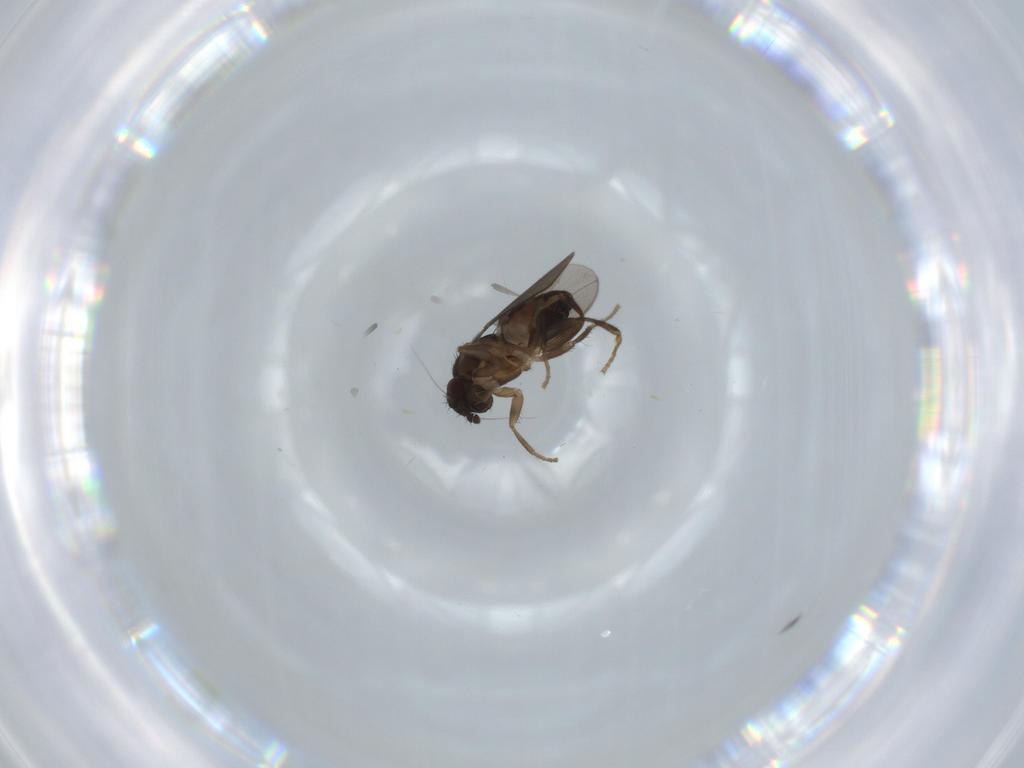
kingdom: Animalia
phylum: Arthropoda
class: Insecta
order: Diptera
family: Sphaeroceridae
